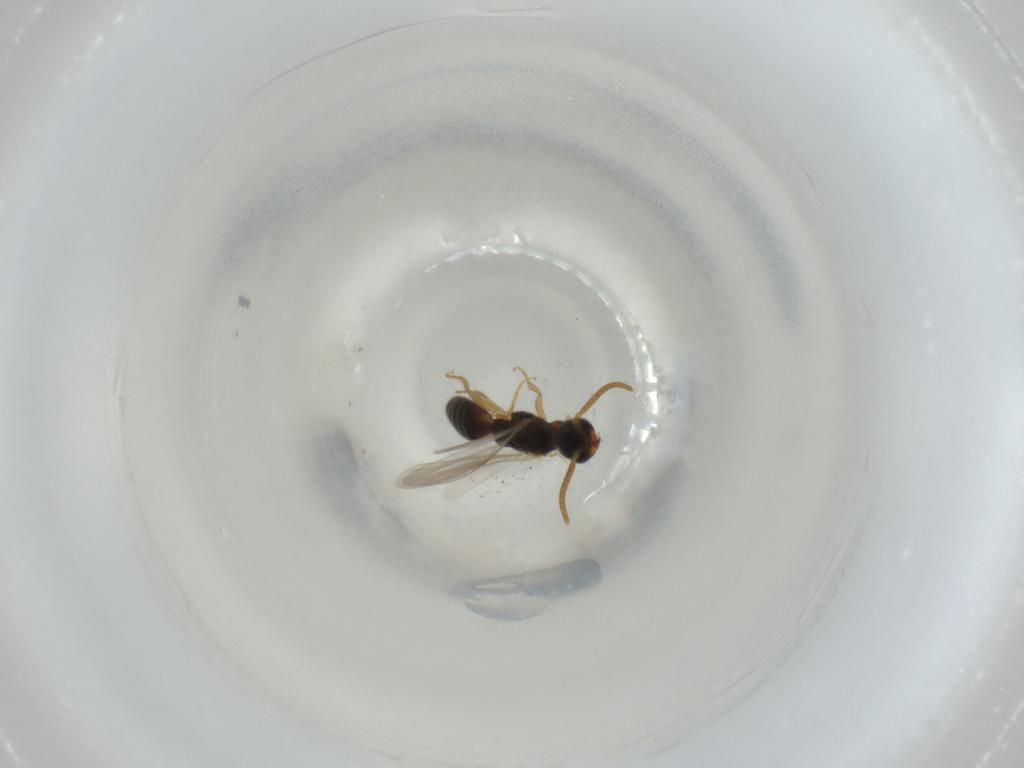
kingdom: Animalia
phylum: Arthropoda
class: Insecta
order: Hymenoptera
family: Bethylidae
